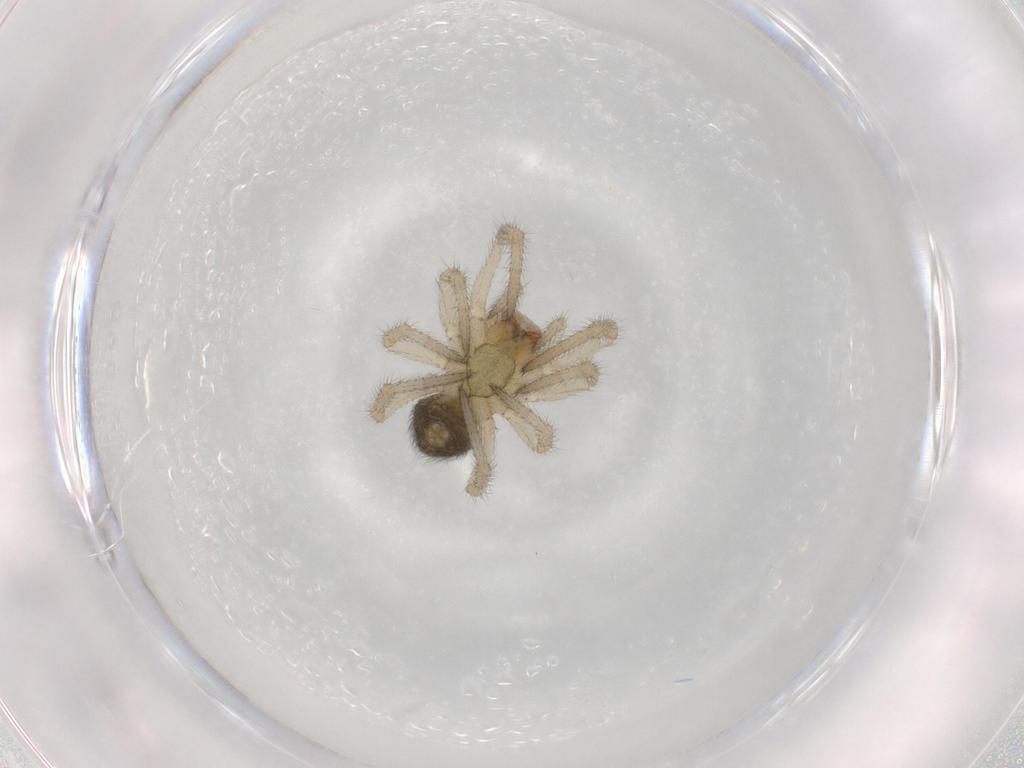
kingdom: Animalia
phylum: Arthropoda
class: Arachnida
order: Araneae
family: Theridiidae
